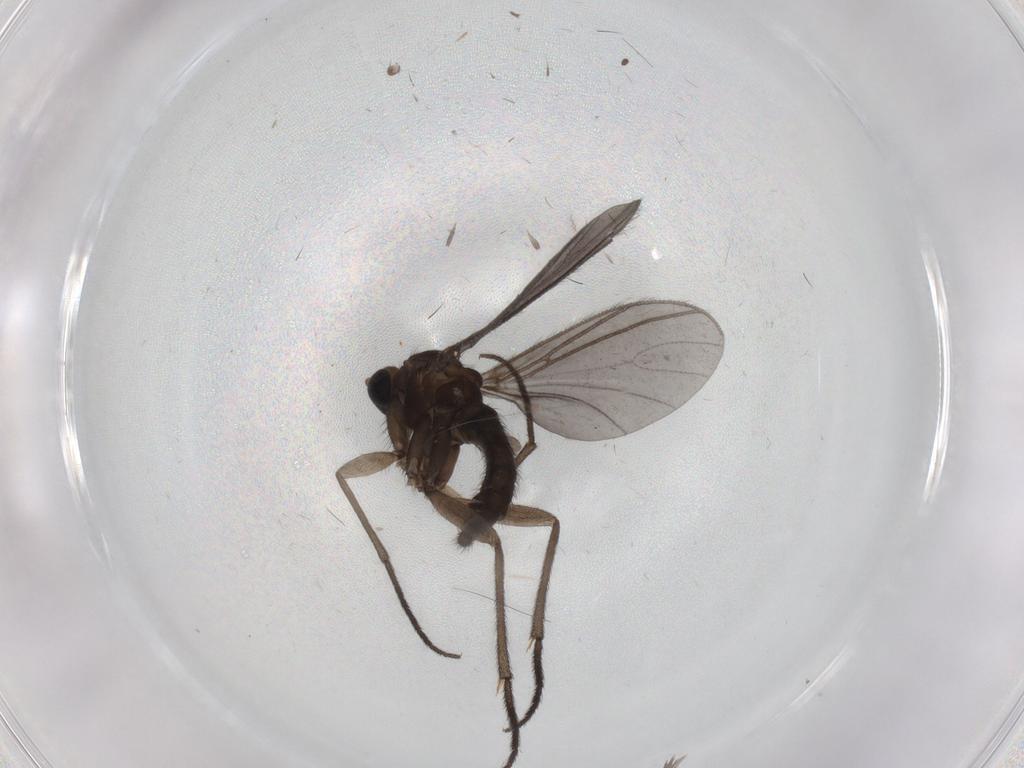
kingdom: Animalia
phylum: Arthropoda
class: Insecta
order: Diptera
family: Sciaridae
